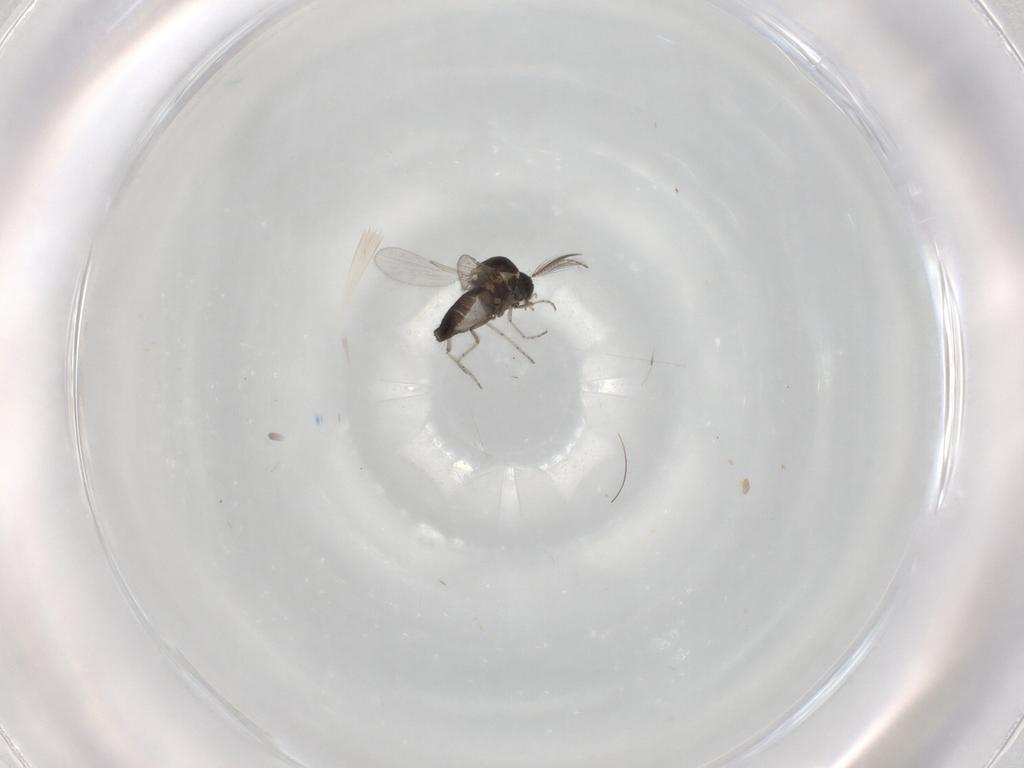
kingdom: Animalia
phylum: Arthropoda
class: Insecta
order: Diptera
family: Ceratopogonidae
